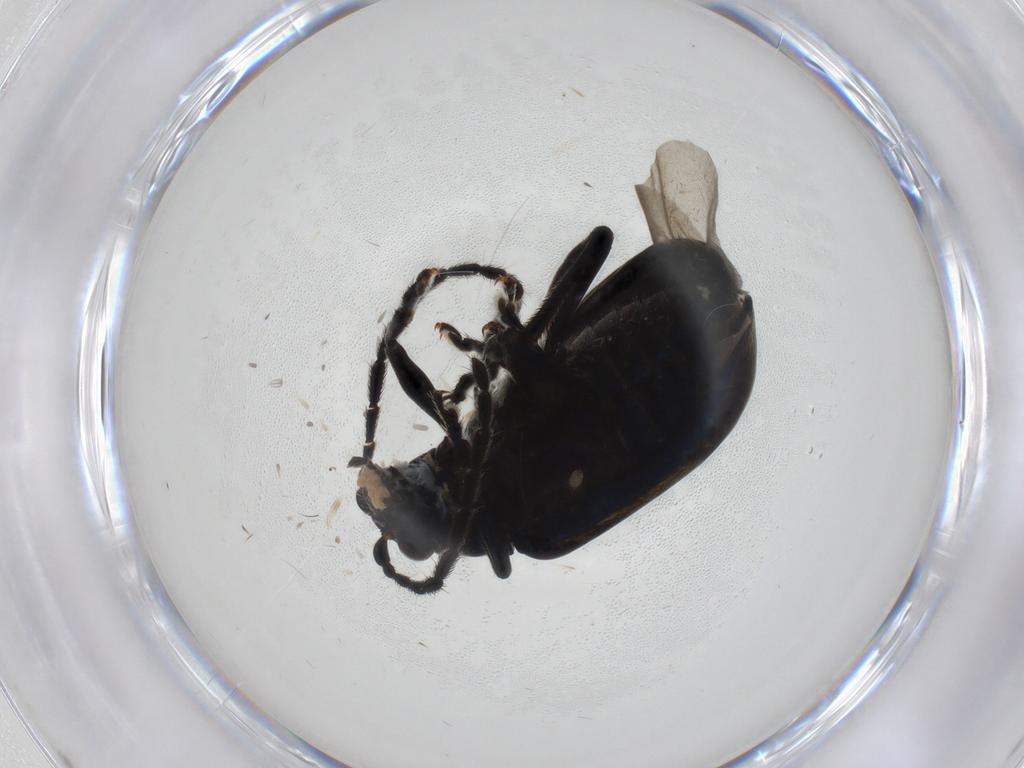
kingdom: Animalia
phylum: Arthropoda
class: Insecta
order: Coleoptera
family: Chrysomelidae
